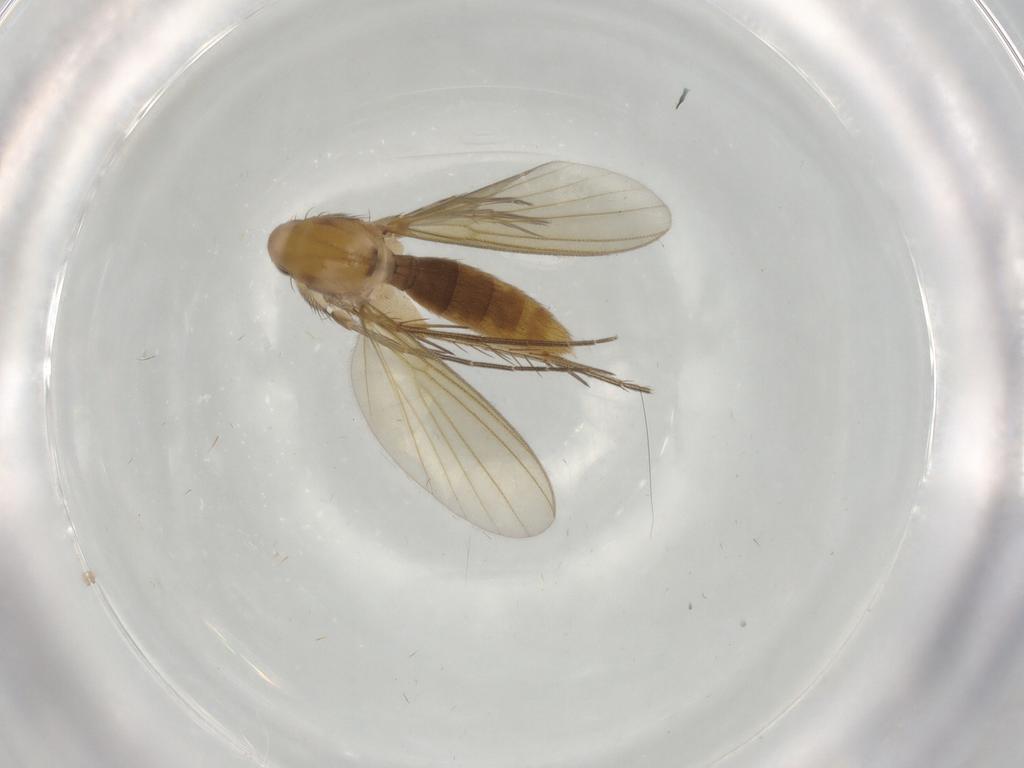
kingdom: Animalia
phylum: Arthropoda
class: Insecta
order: Diptera
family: Mycetophilidae
